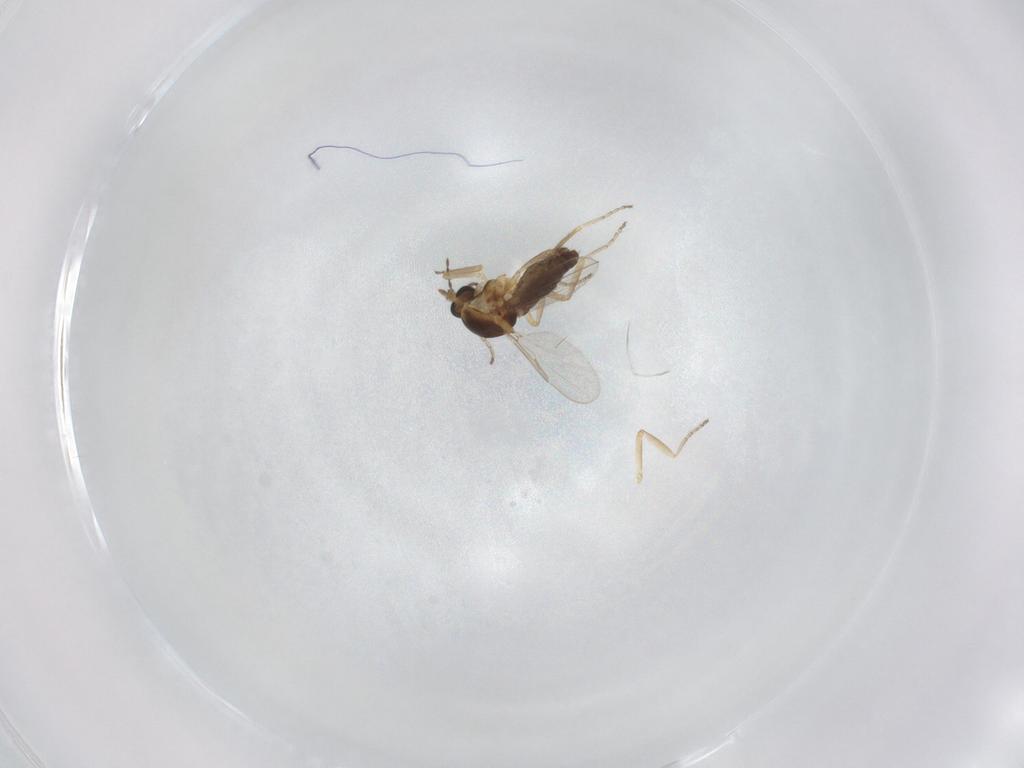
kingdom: Animalia
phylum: Arthropoda
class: Insecta
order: Diptera
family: Ceratopogonidae
